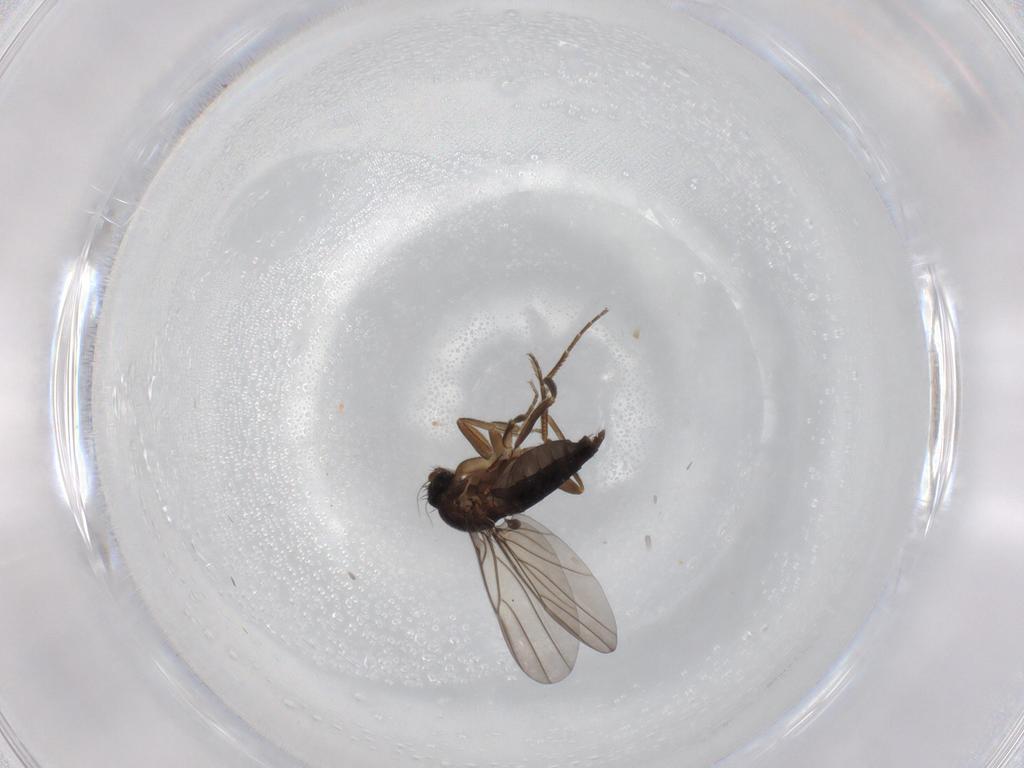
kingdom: Animalia
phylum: Arthropoda
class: Insecta
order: Diptera
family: Phoridae
